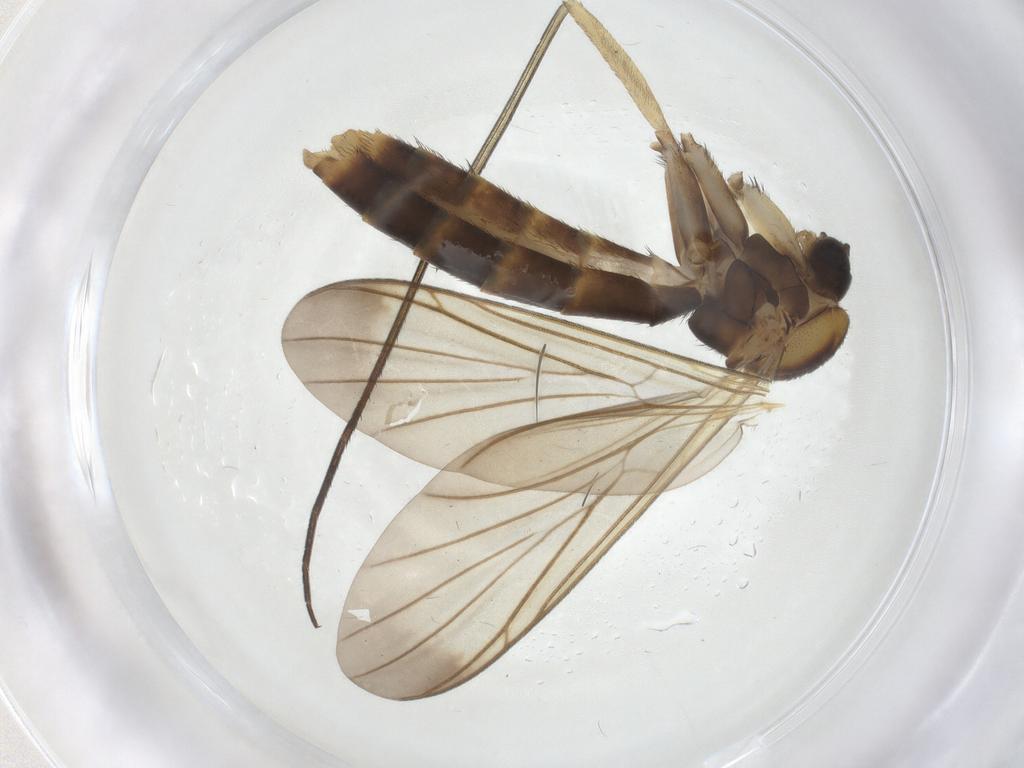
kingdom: Animalia
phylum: Arthropoda
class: Insecta
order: Diptera
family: Keroplatidae
